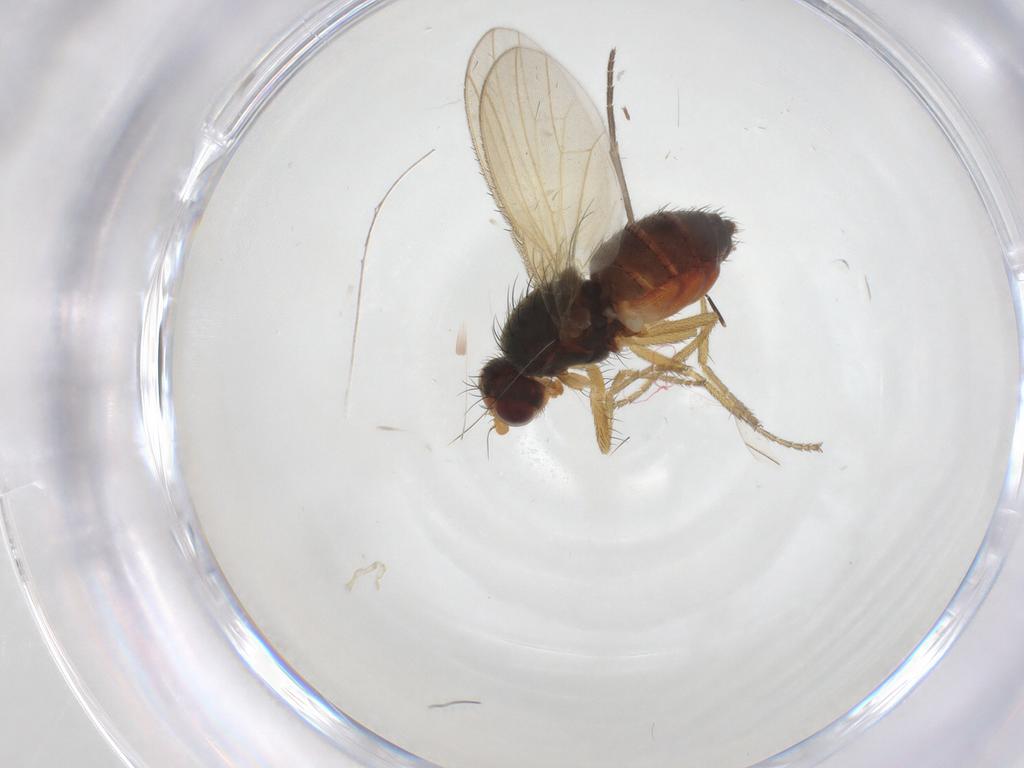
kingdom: Animalia
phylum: Arthropoda
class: Insecta
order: Diptera
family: Heleomyzidae
